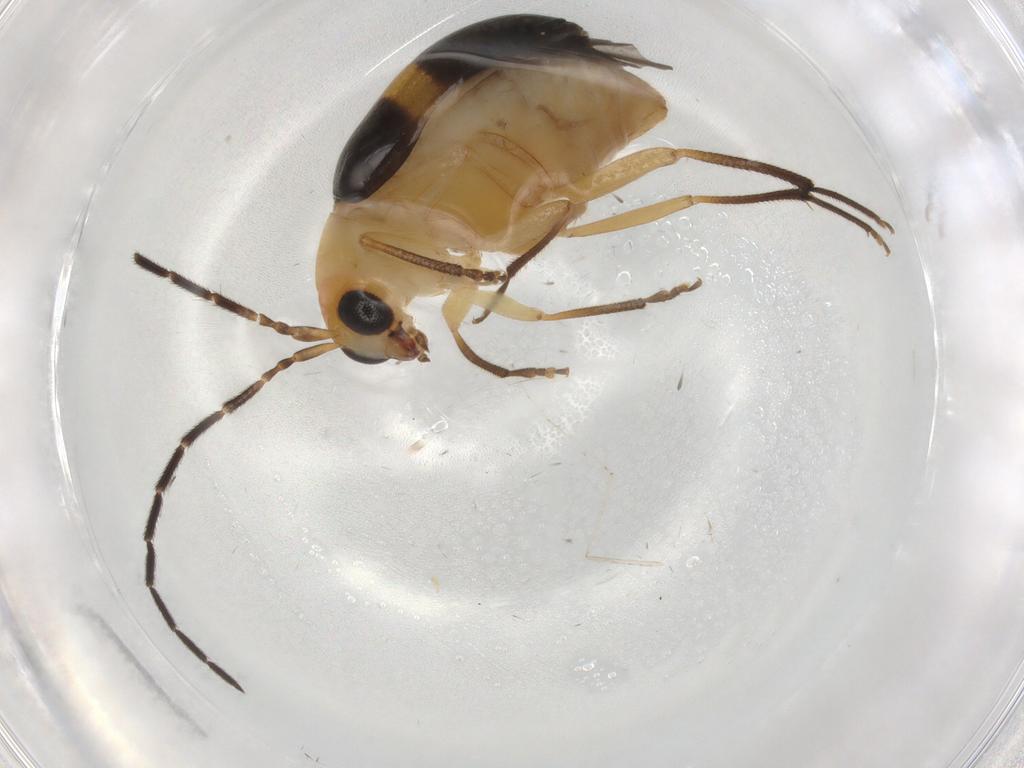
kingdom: Animalia
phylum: Arthropoda
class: Insecta
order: Coleoptera
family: Chrysomelidae
